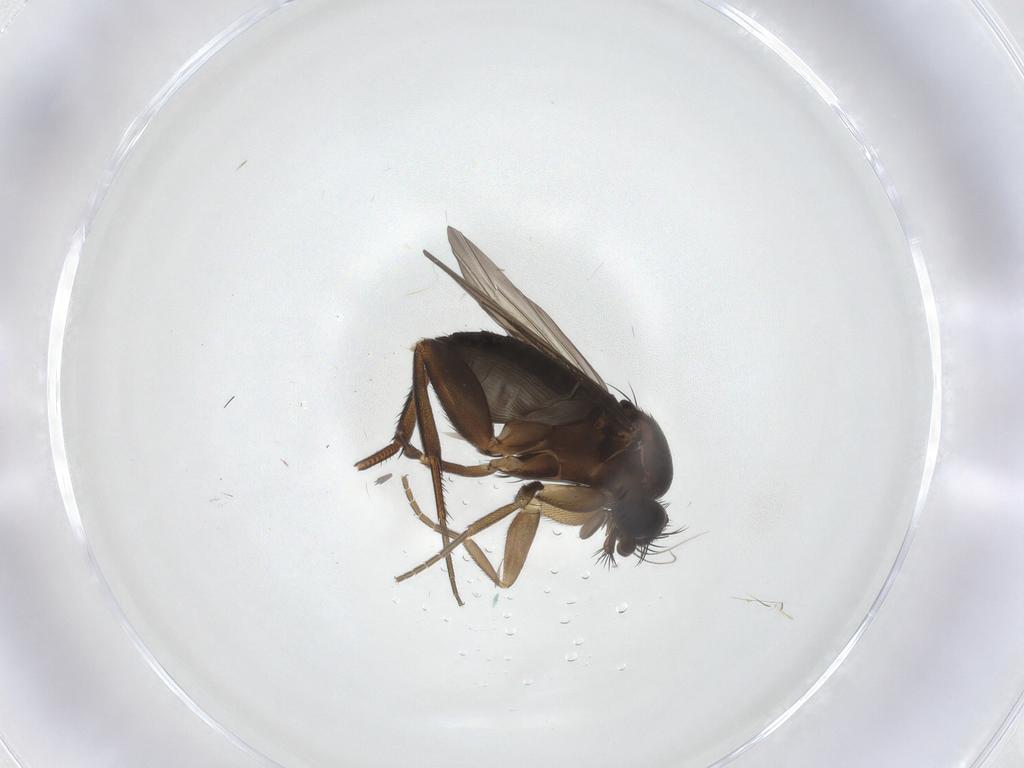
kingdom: Animalia
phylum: Arthropoda
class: Insecta
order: Diptera
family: Phoridae
